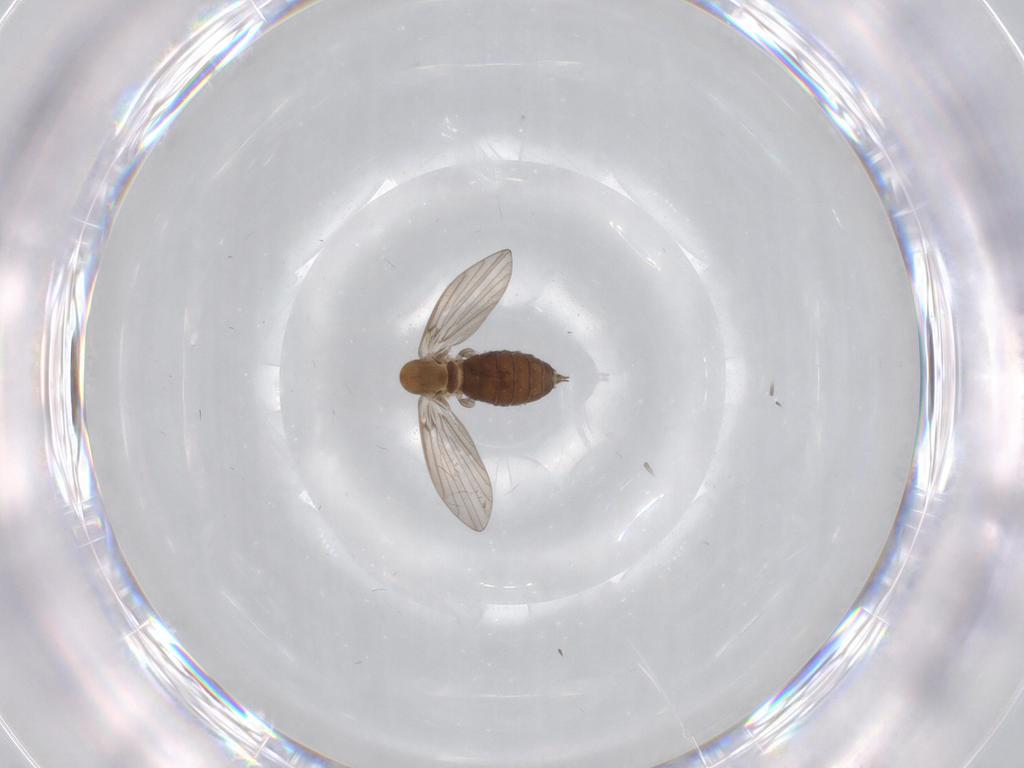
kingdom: Animalia
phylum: Arthropoda
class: Insecta
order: Diptera
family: Psychodidae
